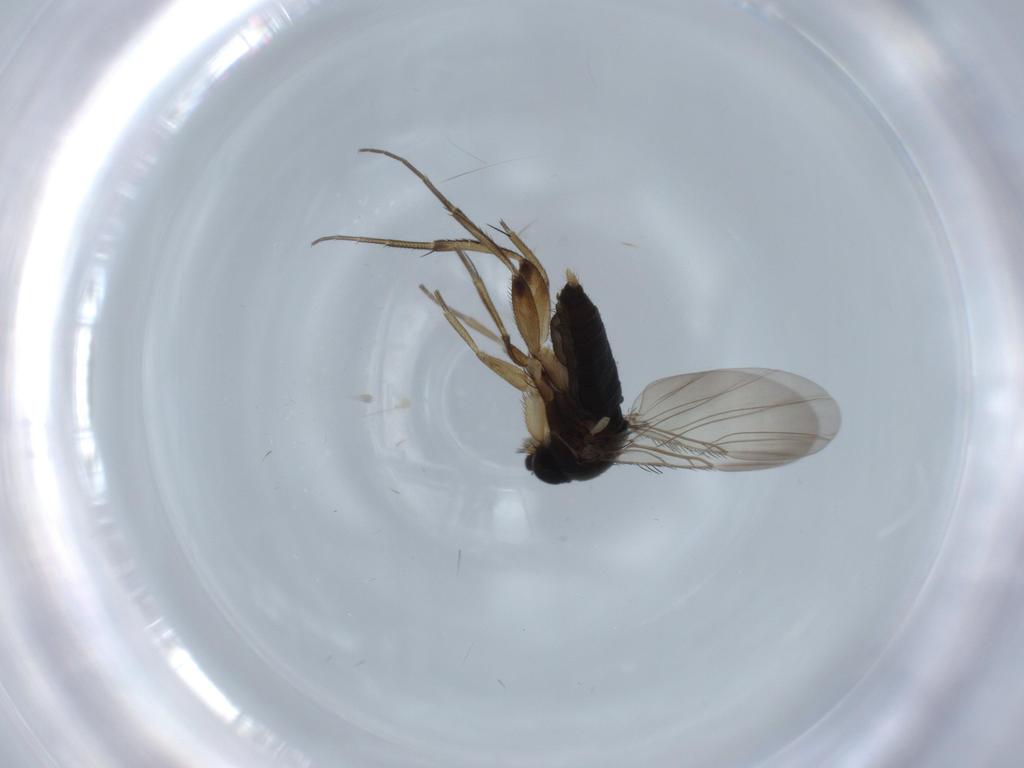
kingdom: Animalia
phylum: Arthropoda
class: Insecta
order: Diptera
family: Phoridae
